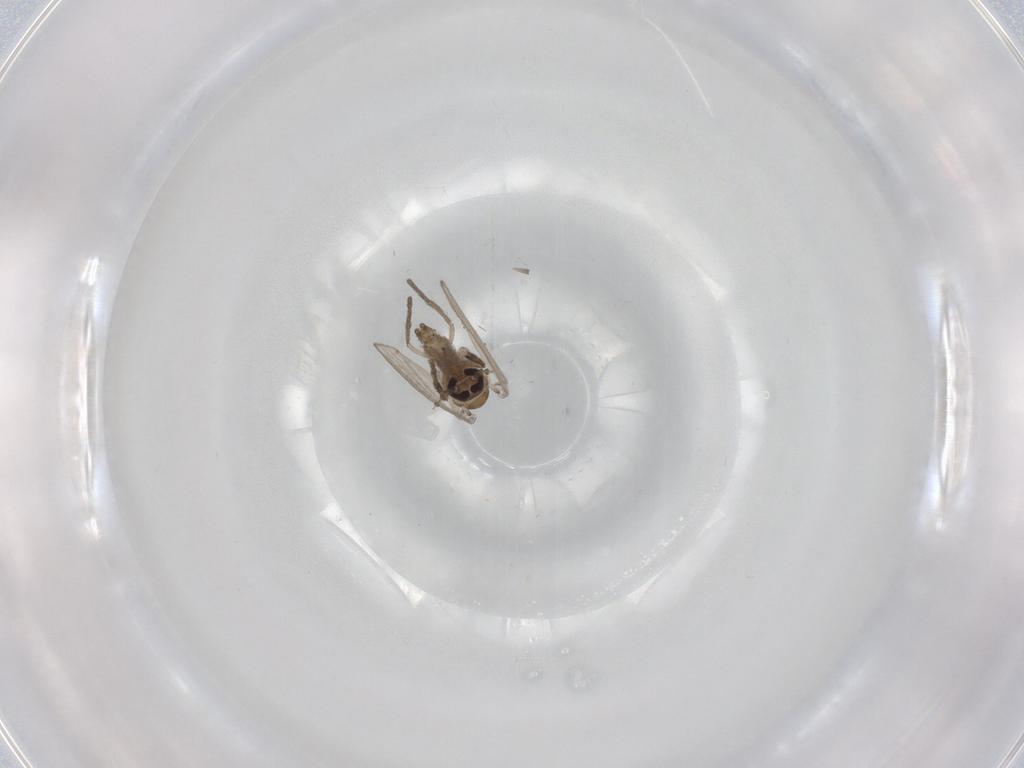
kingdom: Animalia
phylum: Arthropoda
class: Insecta
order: Diptera
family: Psychodidae
